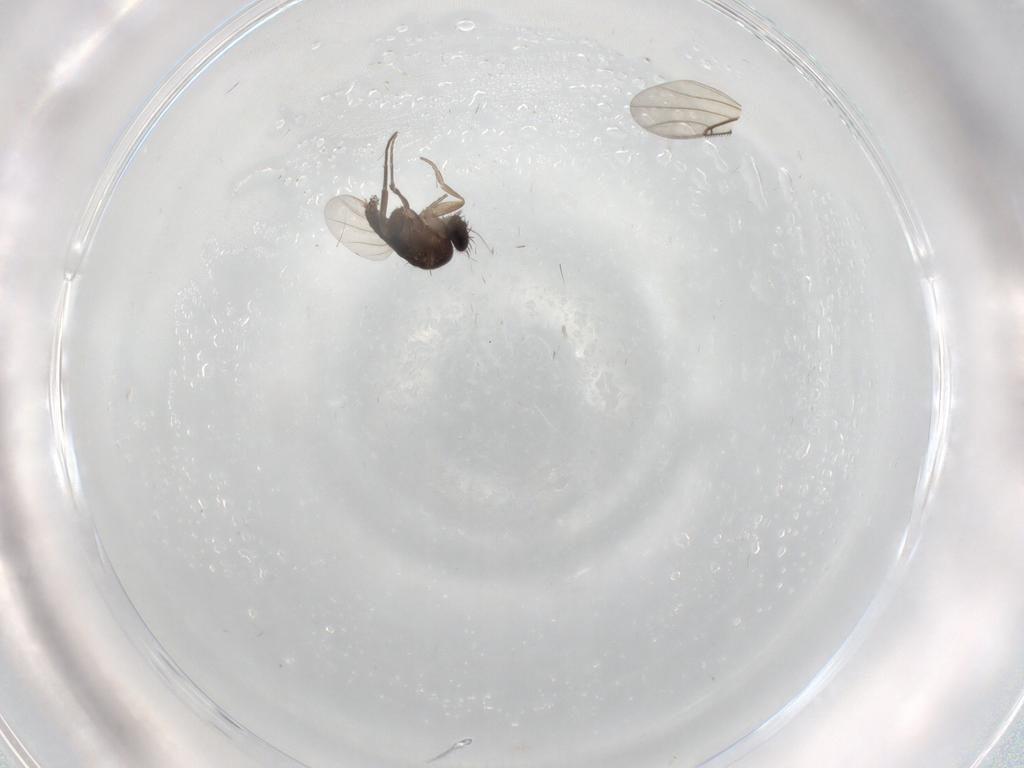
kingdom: Animalia
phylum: Arthropoda
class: Insecta
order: Diptera
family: Phoridae
